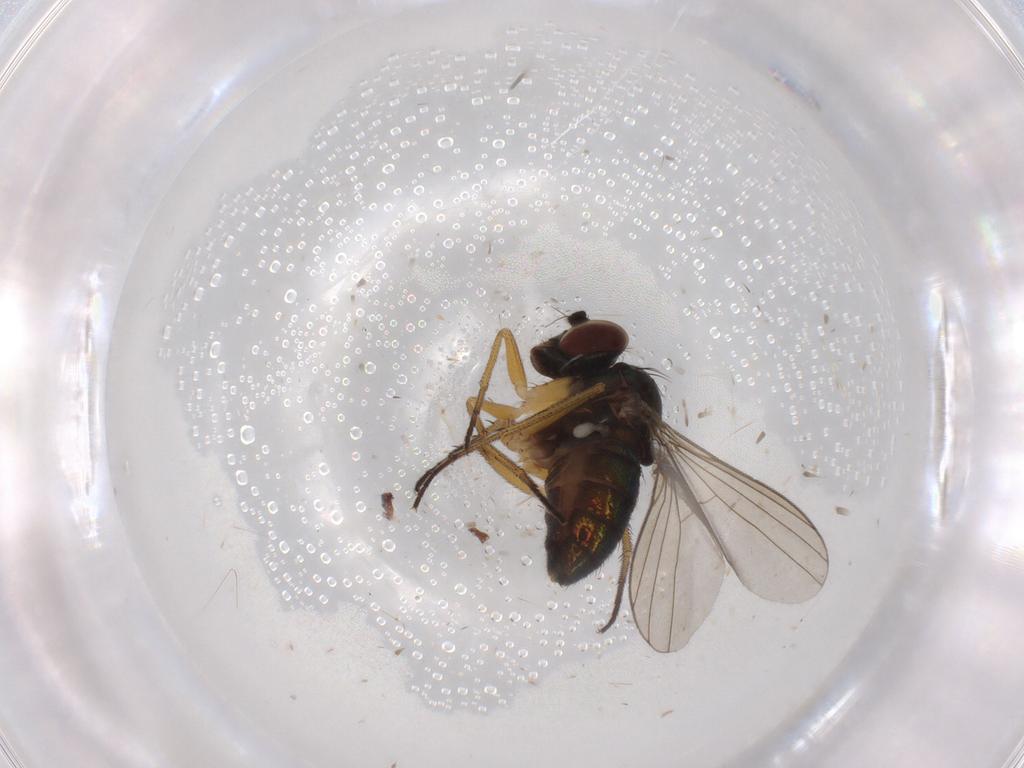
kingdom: Animalia
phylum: Arthropoda
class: Insecta
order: Diptera
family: Dolichopodidae
